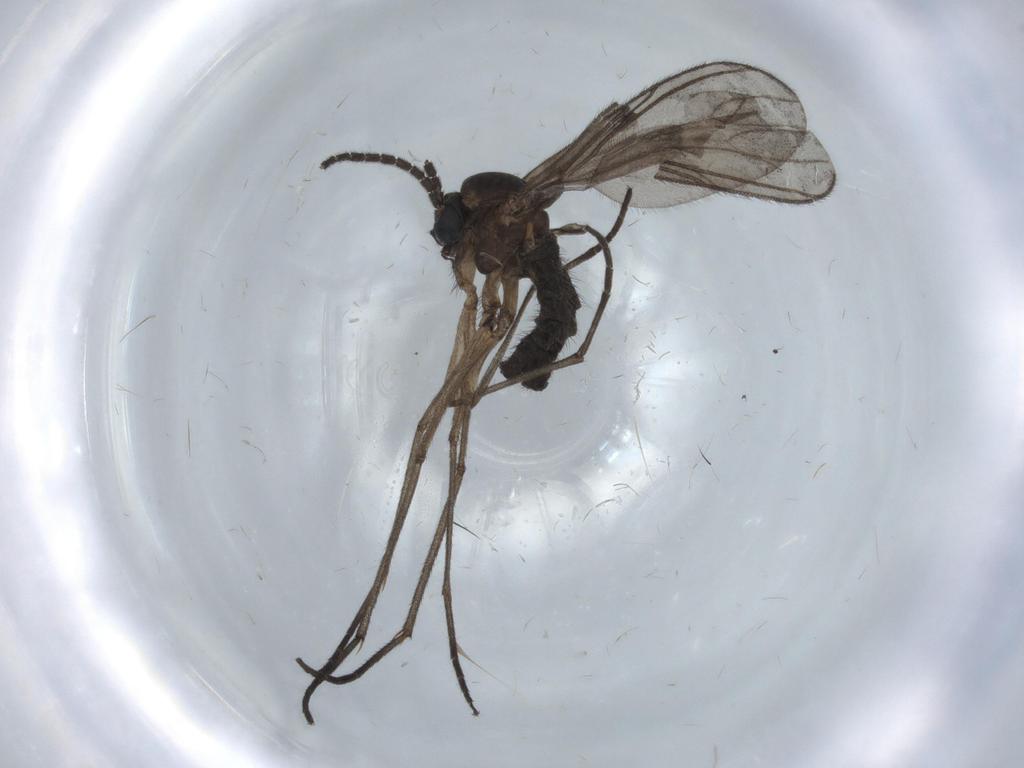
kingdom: Animalia
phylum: Arthropoda
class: Insecta
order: Diptera
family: Sciaridae
